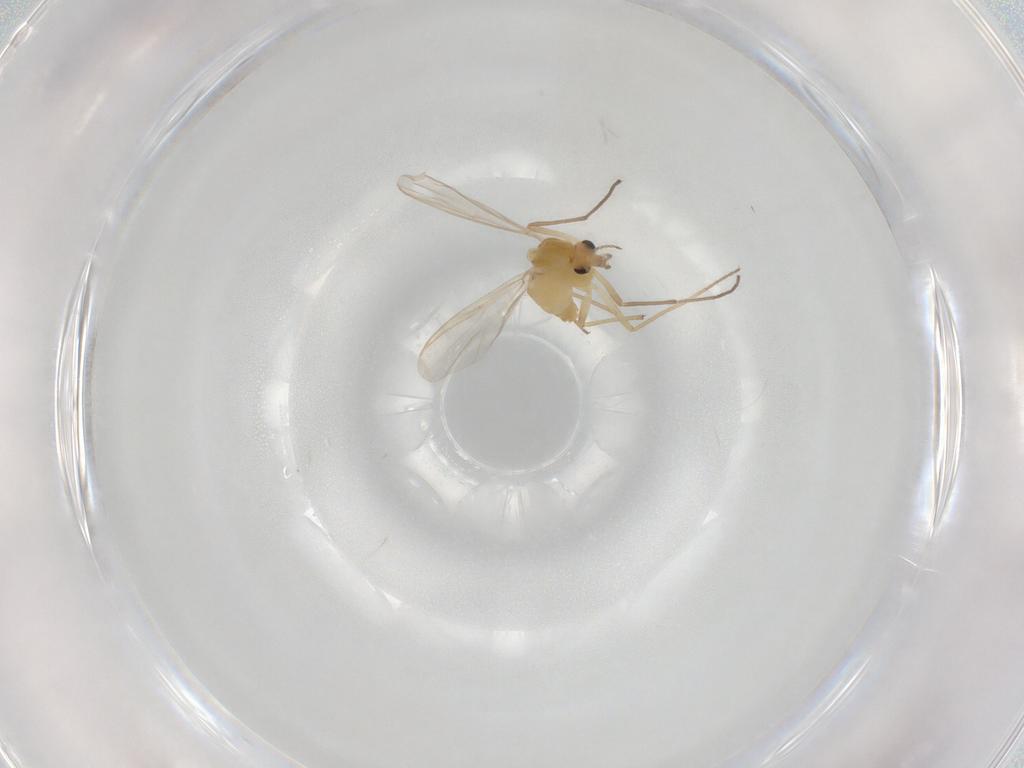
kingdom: Animalia
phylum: Arthropoda
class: Insecta
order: Diptera
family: Chironomidae
